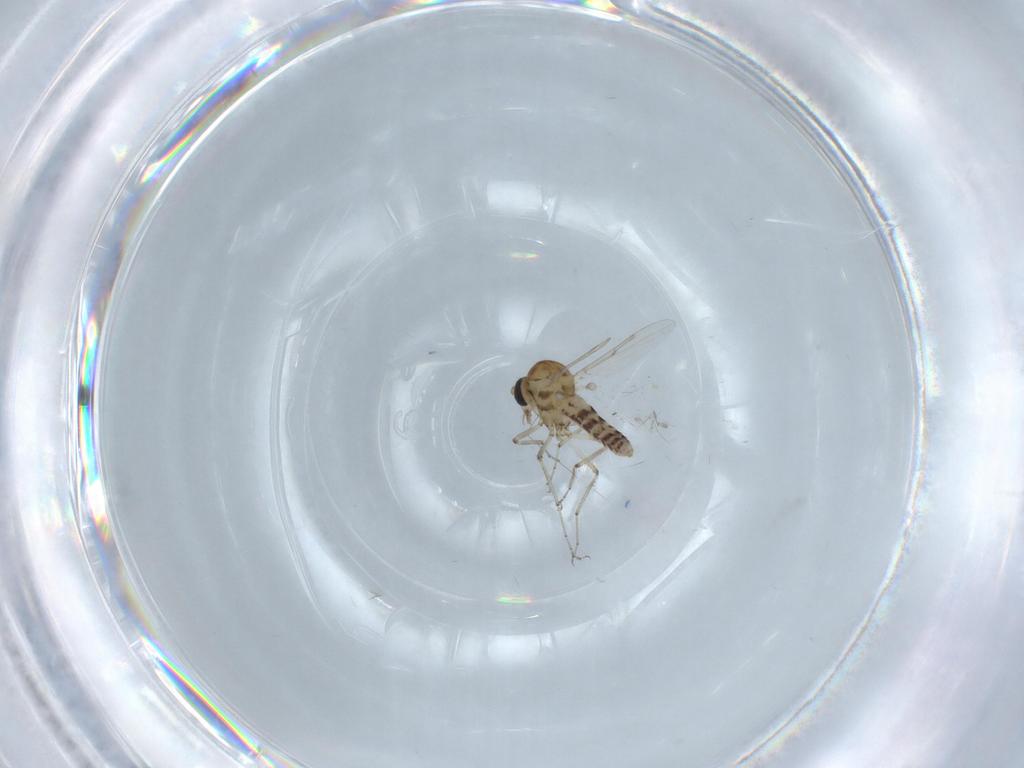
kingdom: Animalia
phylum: Arthropoda
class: Insecta
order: Diptera
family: Ceratopogonidae
